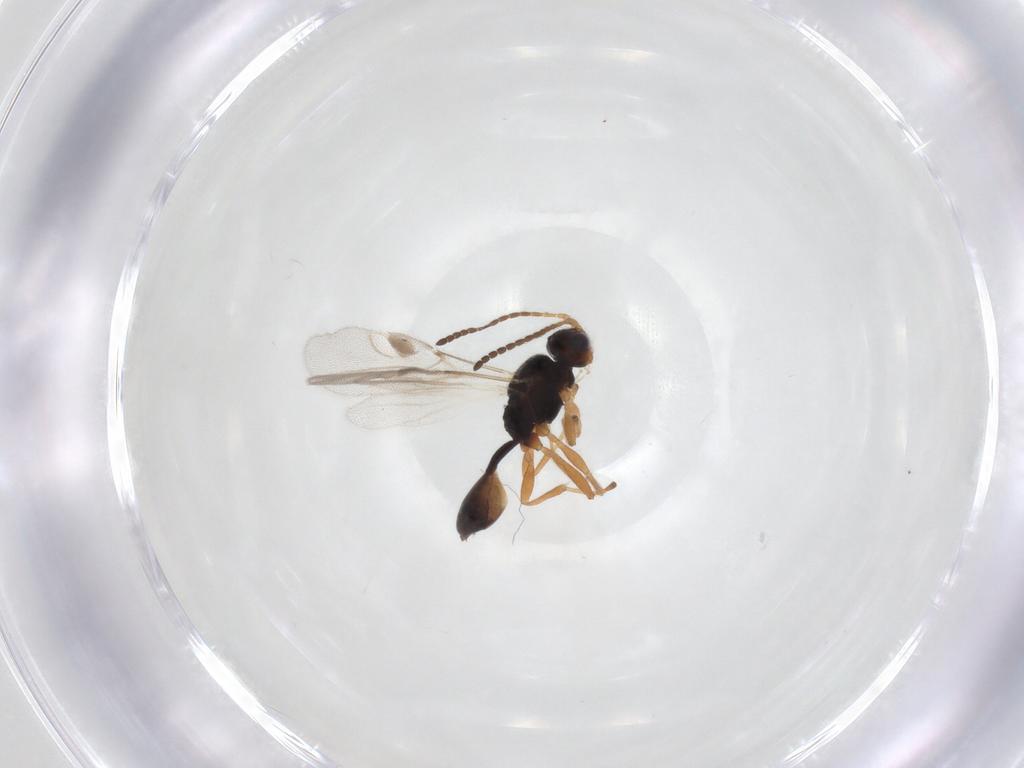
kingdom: Animalia
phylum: Arthropoda
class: Insecta
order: Hymenoptera
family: Braconidae
